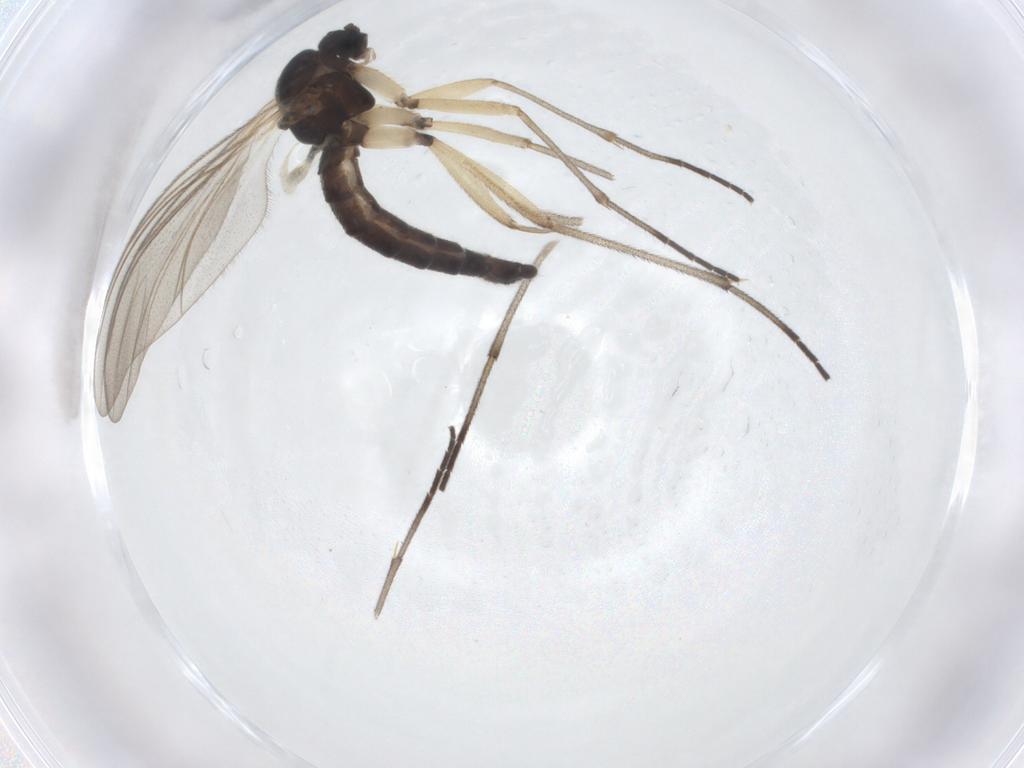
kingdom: Animalia
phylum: Arthropoda
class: Insecta
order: Diptera
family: Sciaridae
